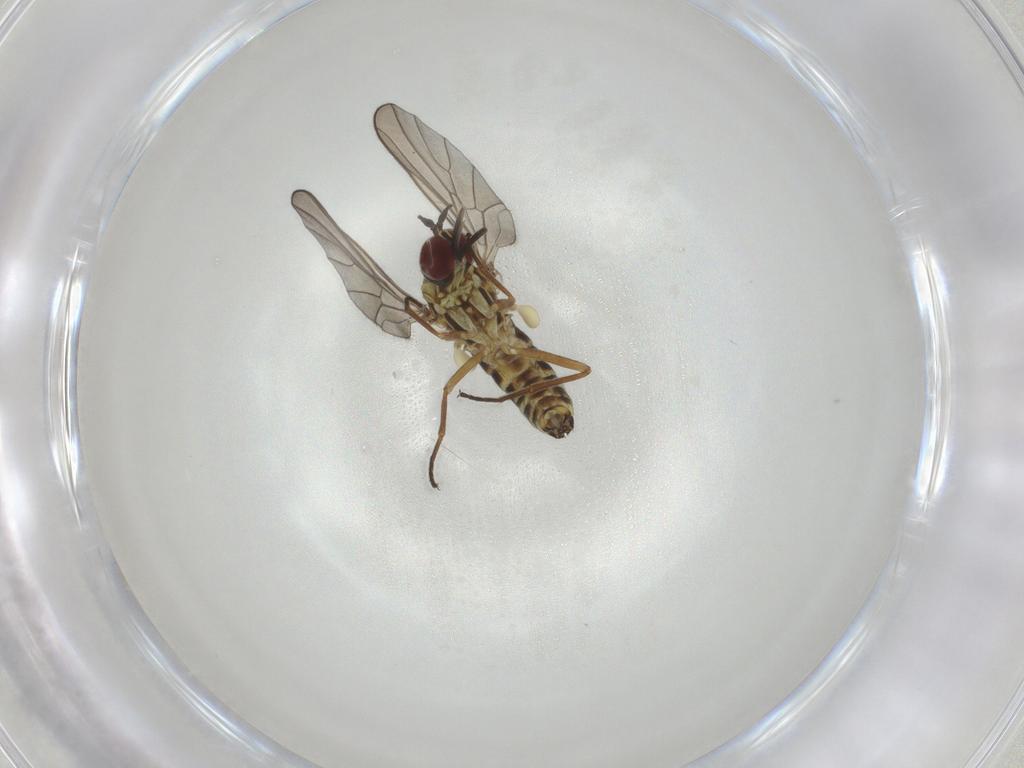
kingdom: Animalia
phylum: Arthropoda
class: Insecta
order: Diptera
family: Bombyliidae
